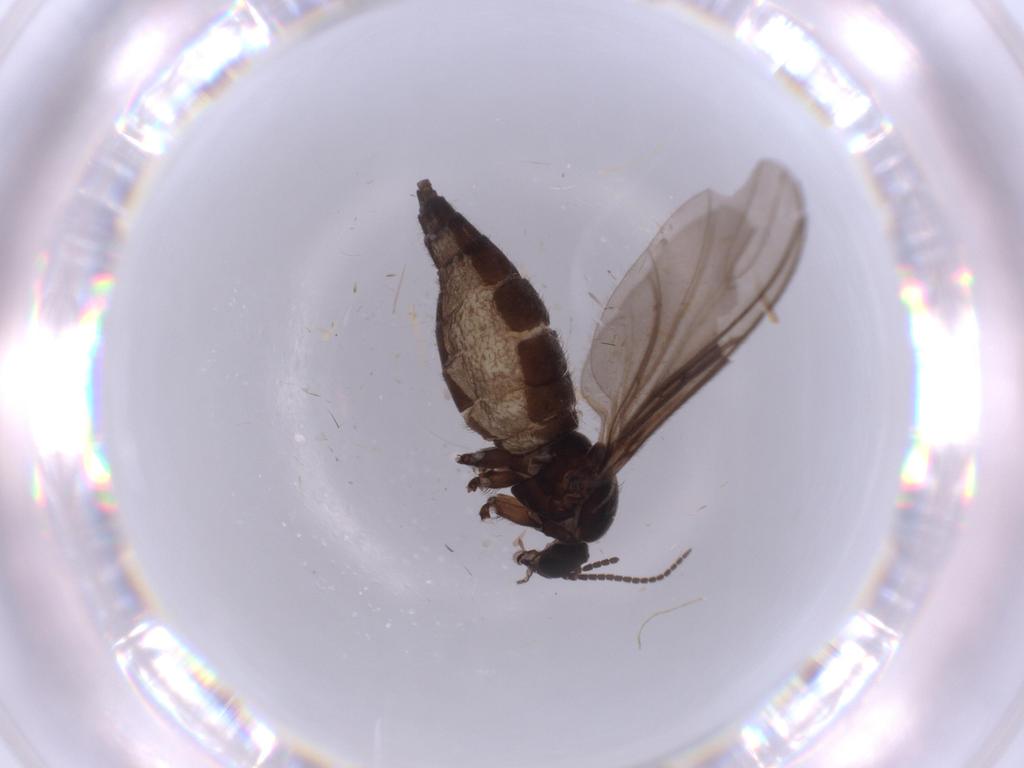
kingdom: Animalia
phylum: Arthropoda
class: Insecta
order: Diptera
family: Sciaridae
